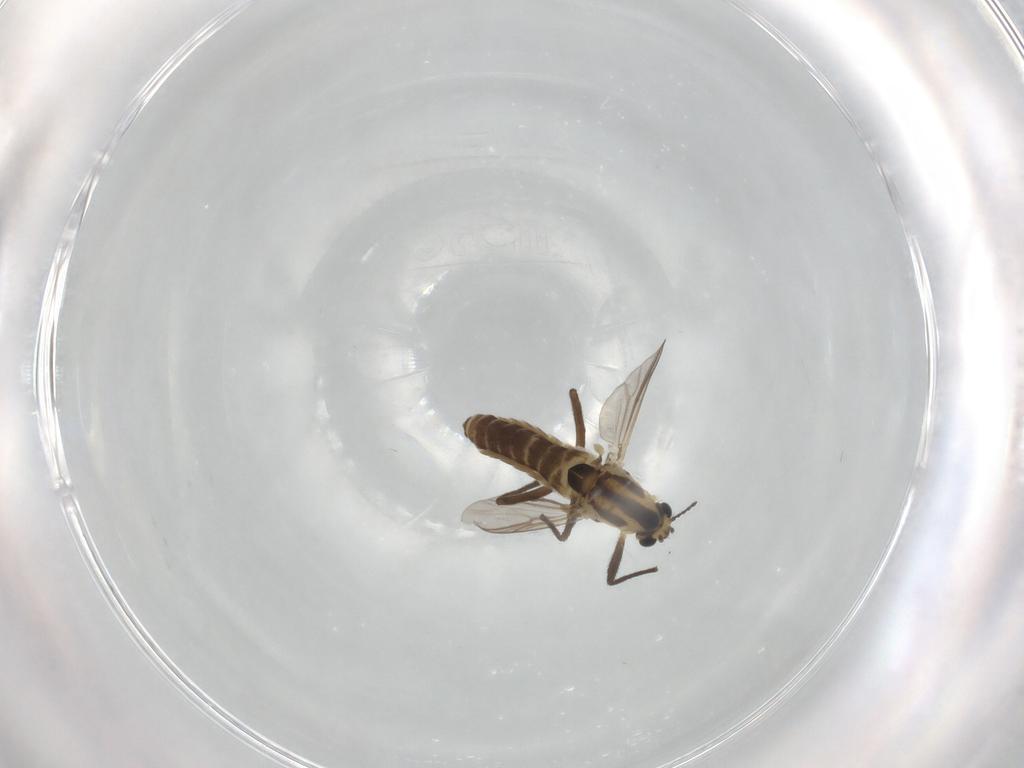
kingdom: Animalia
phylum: Arthropoda
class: Insecta
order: Diptera
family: Chironomidae
